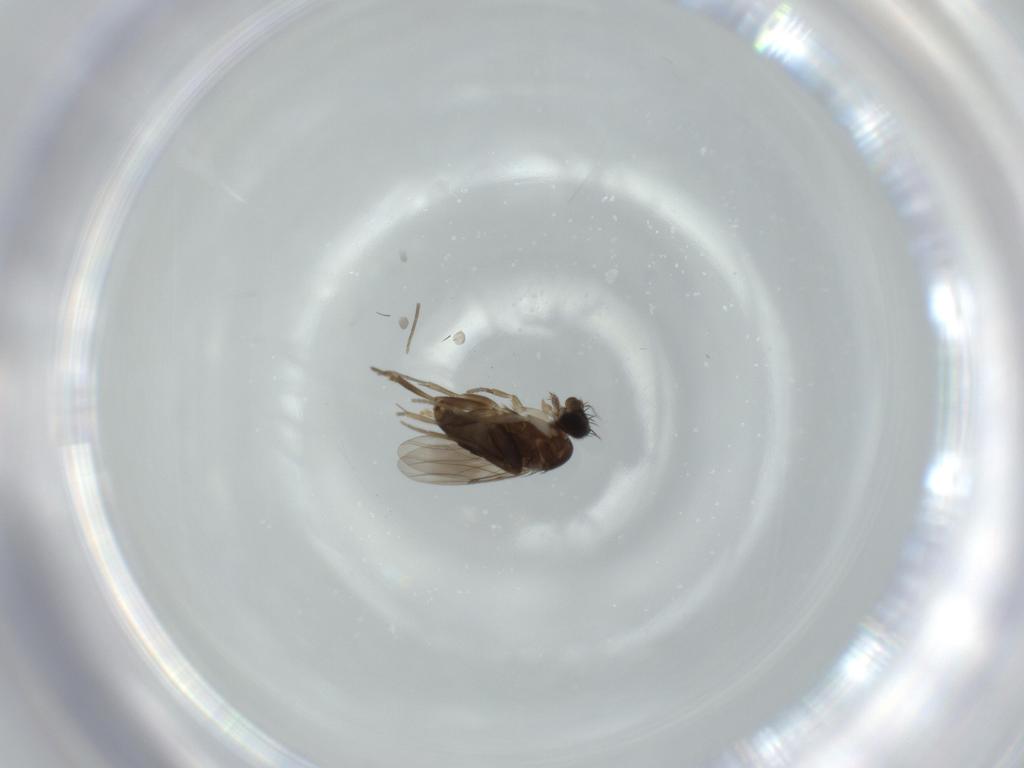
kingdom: Animalia
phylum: Arthropoda
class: Insecta
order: Diptera
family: Phoridae
